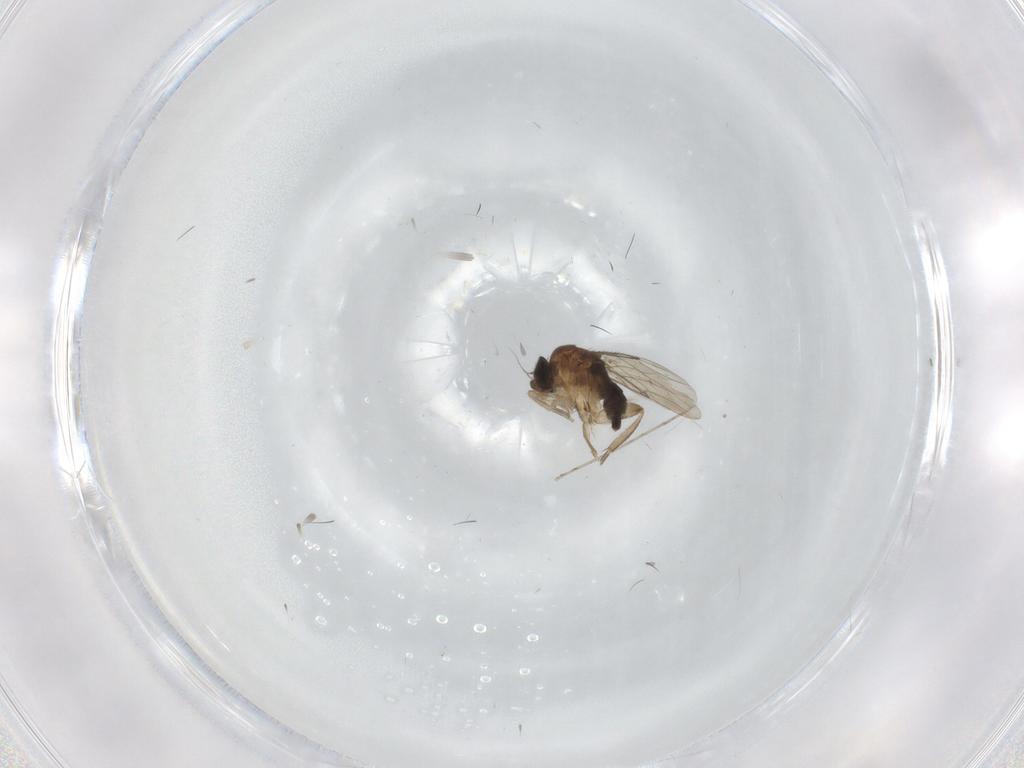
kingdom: Animalia
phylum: Arthropoda
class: Insecta
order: Diptera
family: Phoridae
